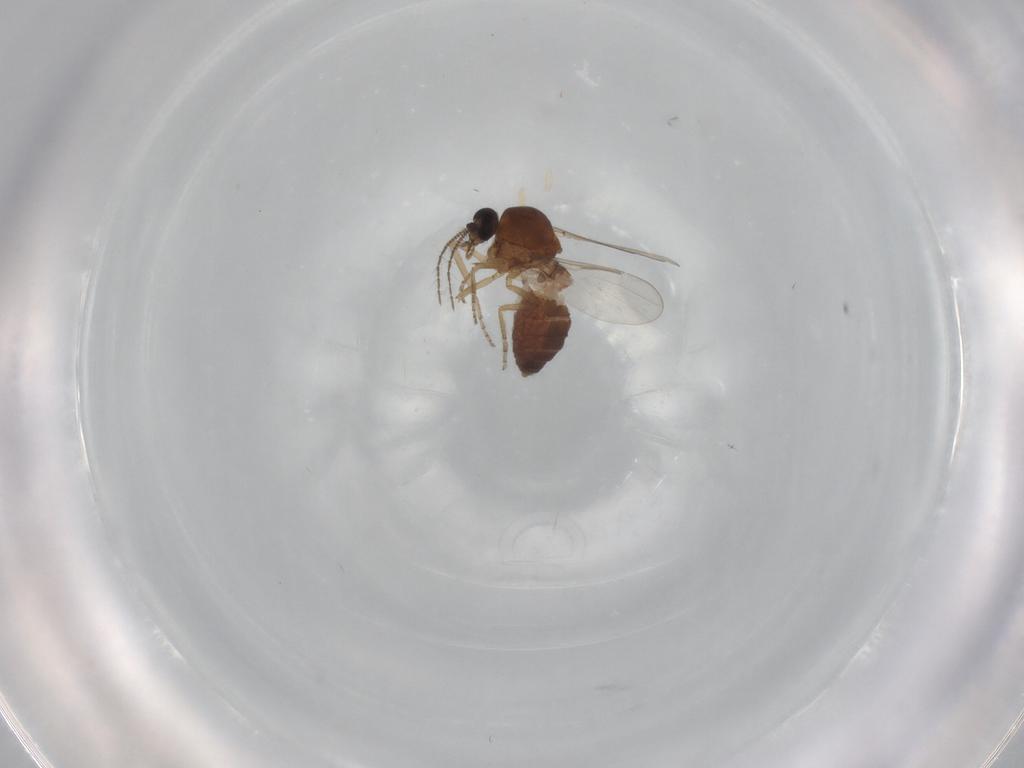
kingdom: Animalia
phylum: Arthropoda
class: Insecta
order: Diptera
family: Ceratopogonidae
